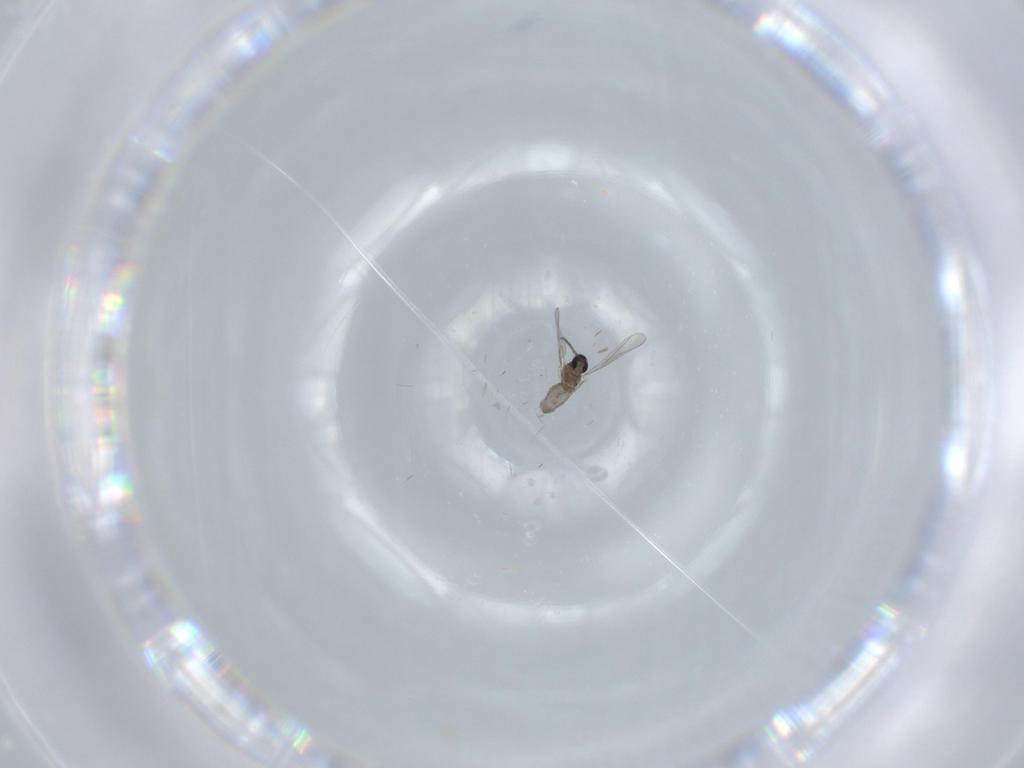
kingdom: Animalia
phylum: Arthropoda
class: Insecta
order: Diptera
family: Cecidomyiidae
